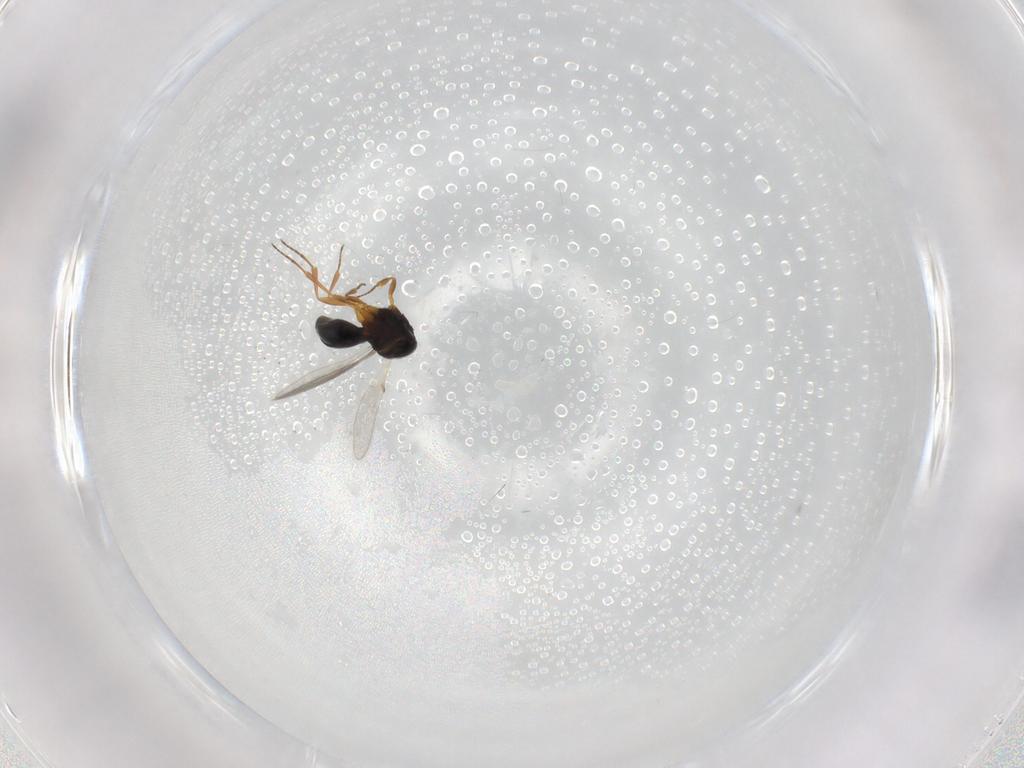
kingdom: Animalia
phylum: Arthropoda
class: Insecta
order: Hymenoptera
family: Scelionidae
